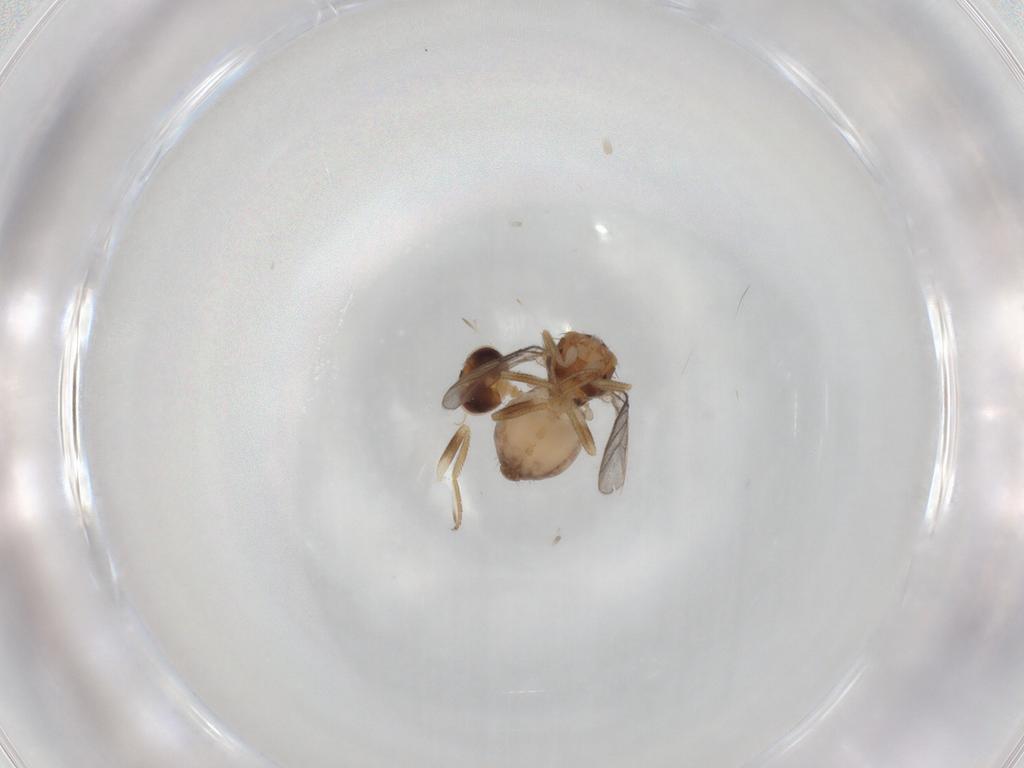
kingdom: Animalia
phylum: Arthropoda
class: Insecta
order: Diptera
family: Chloropidae
